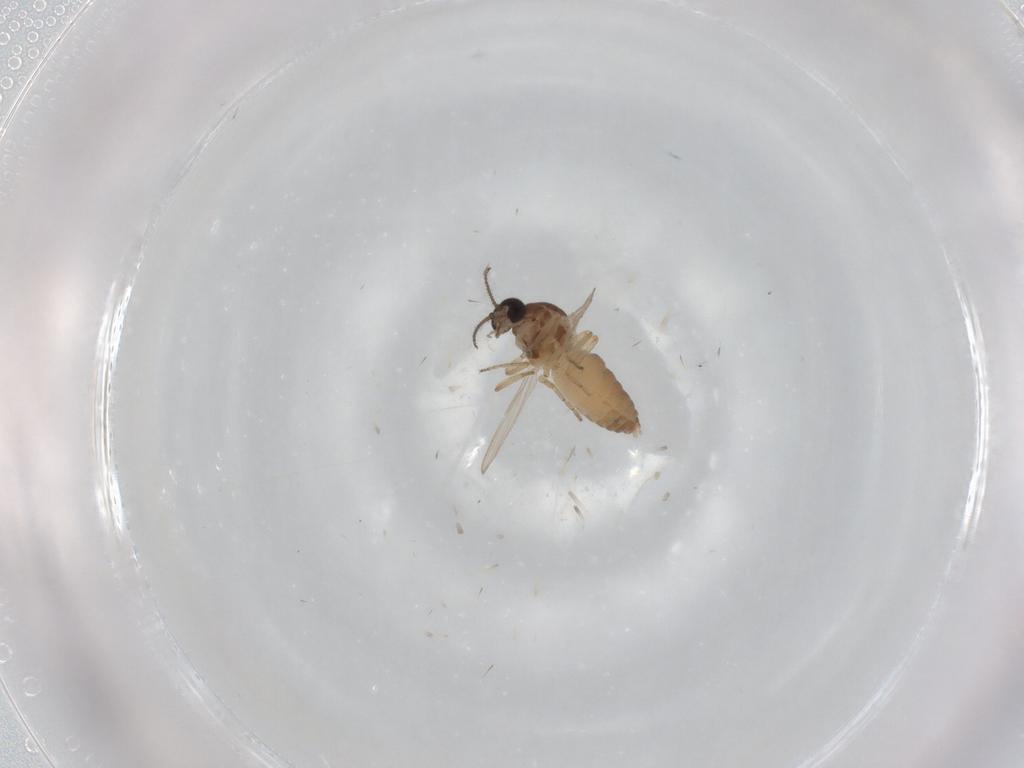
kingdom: Animalia
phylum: Arthropoda
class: Insecta
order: Diptera
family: Ceratopogonidae
